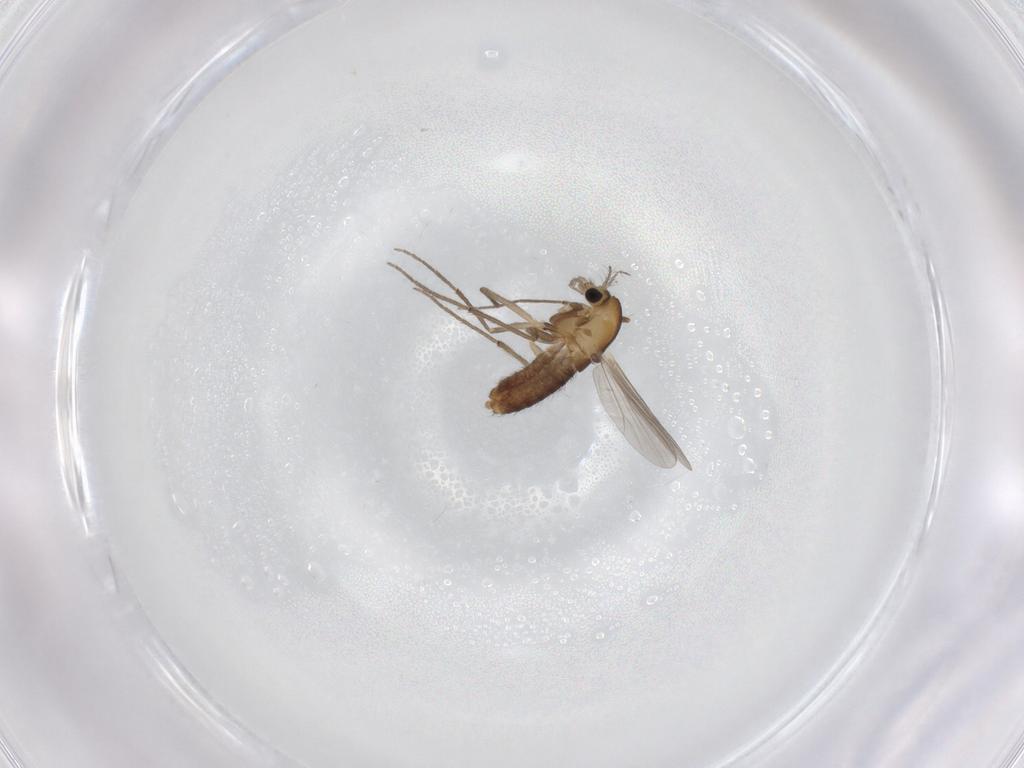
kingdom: Animalia
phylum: Arthropoda
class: Insecta
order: Diptera
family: Chironomidae
